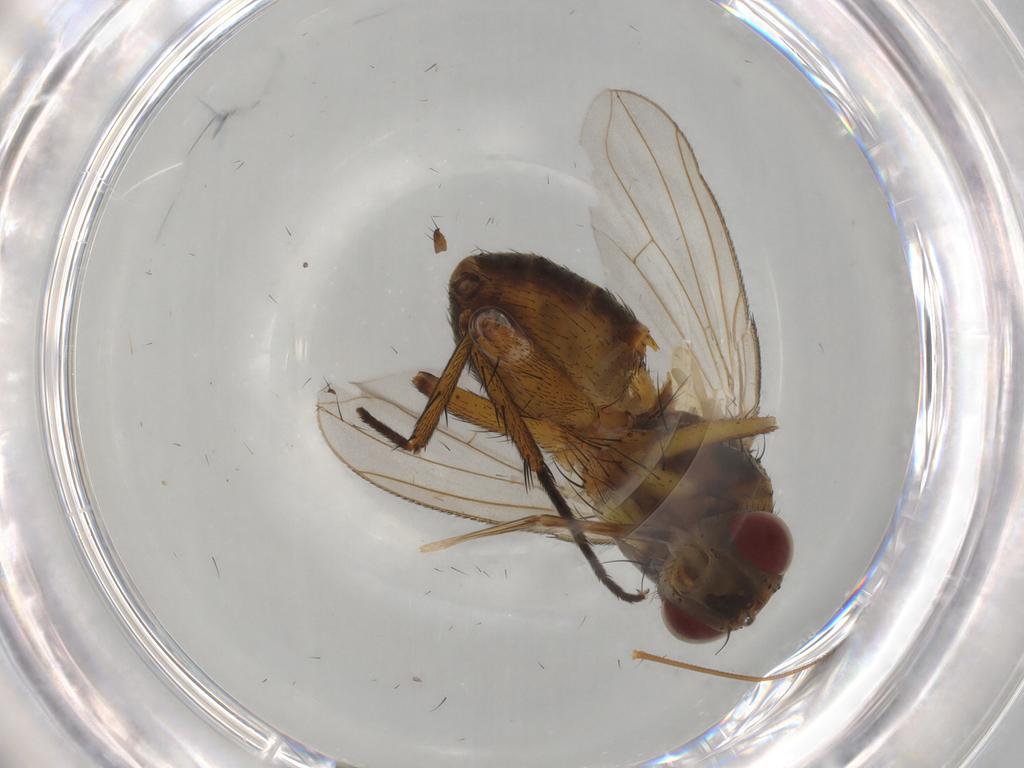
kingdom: Animalia
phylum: Arthropoda
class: Insecta
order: Diptera
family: Tachinidae
